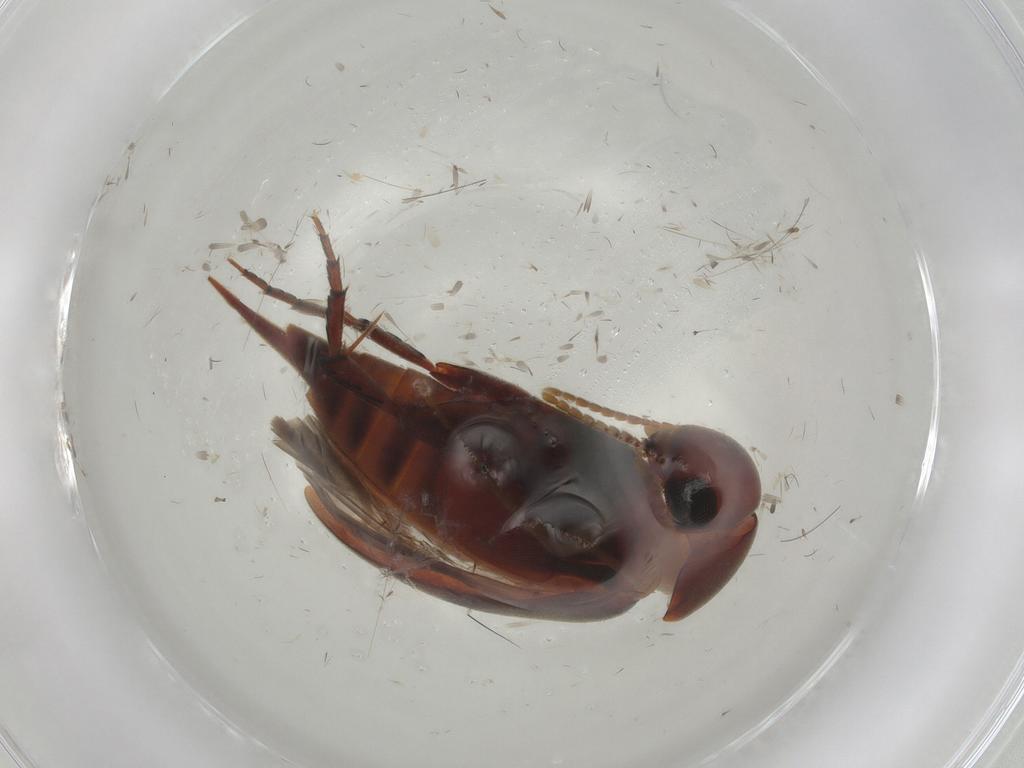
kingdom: Animalia
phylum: Arthropoda
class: Insecta
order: Coleoptera
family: Mordellidae
